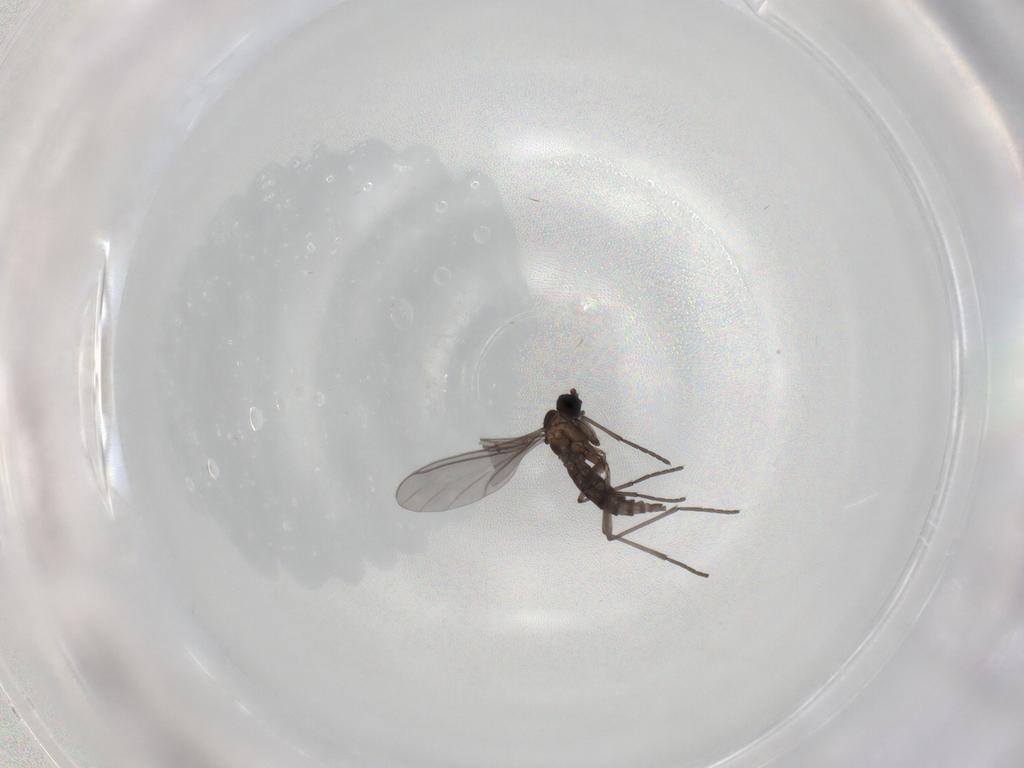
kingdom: Animalia
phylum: Arthropoda
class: Insecta
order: Diptera
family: Sciaridae
